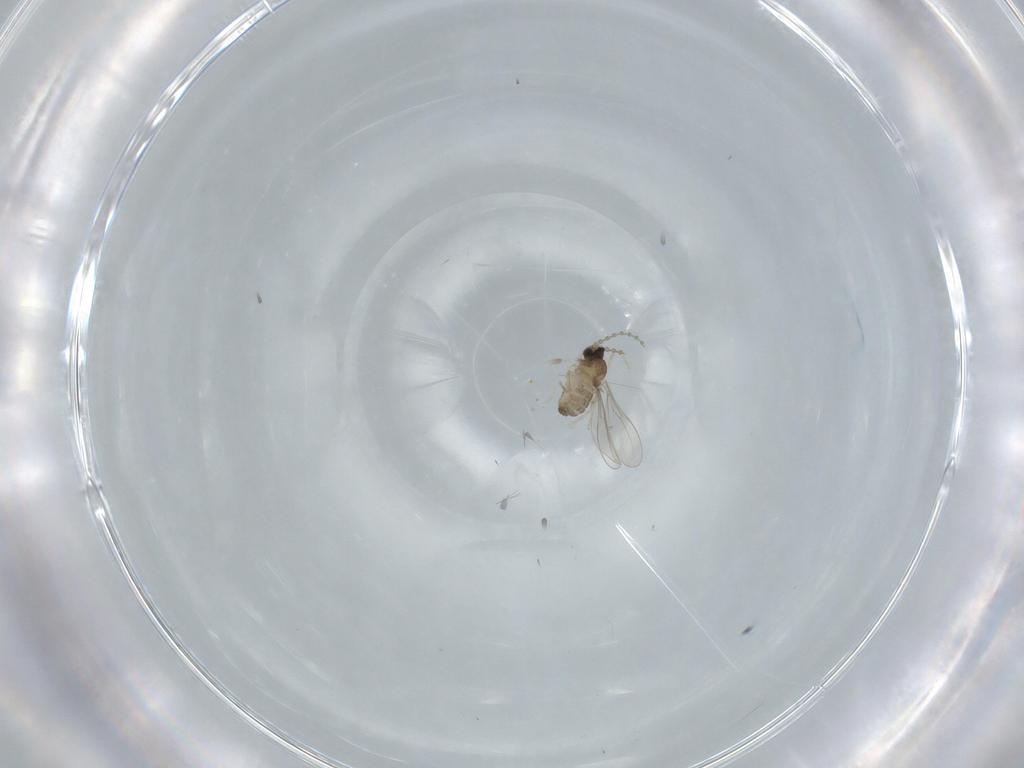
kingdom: Animalia
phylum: Arthropoda
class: Insecta
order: Diptera
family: Cecidomyiidae
